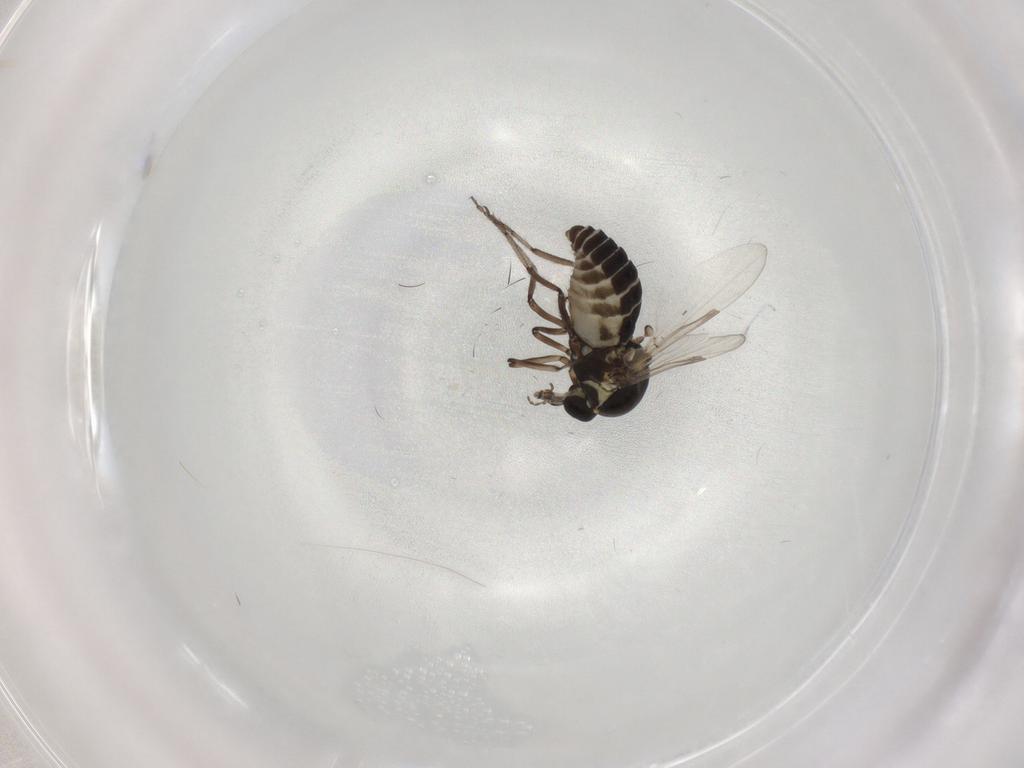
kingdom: Animalia
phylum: Arthropoda
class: Insecta
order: Diptera
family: Ceratopogonidae
